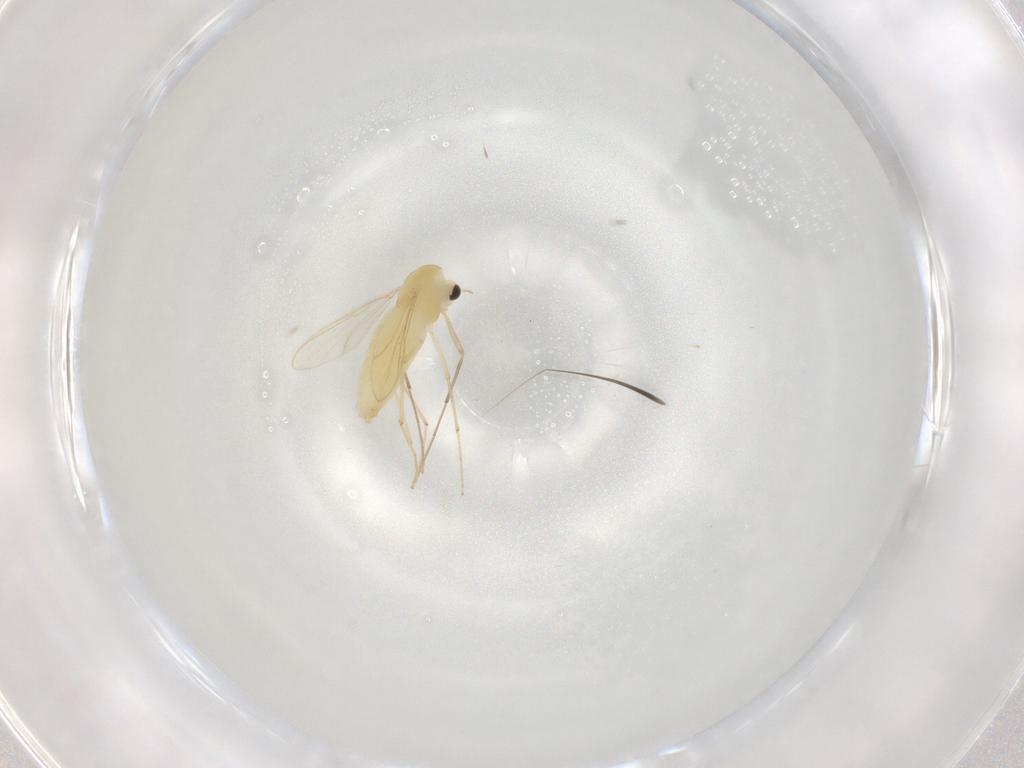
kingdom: Animalia
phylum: Arthropoda
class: Insecta
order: Diptera
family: Chironomidae
